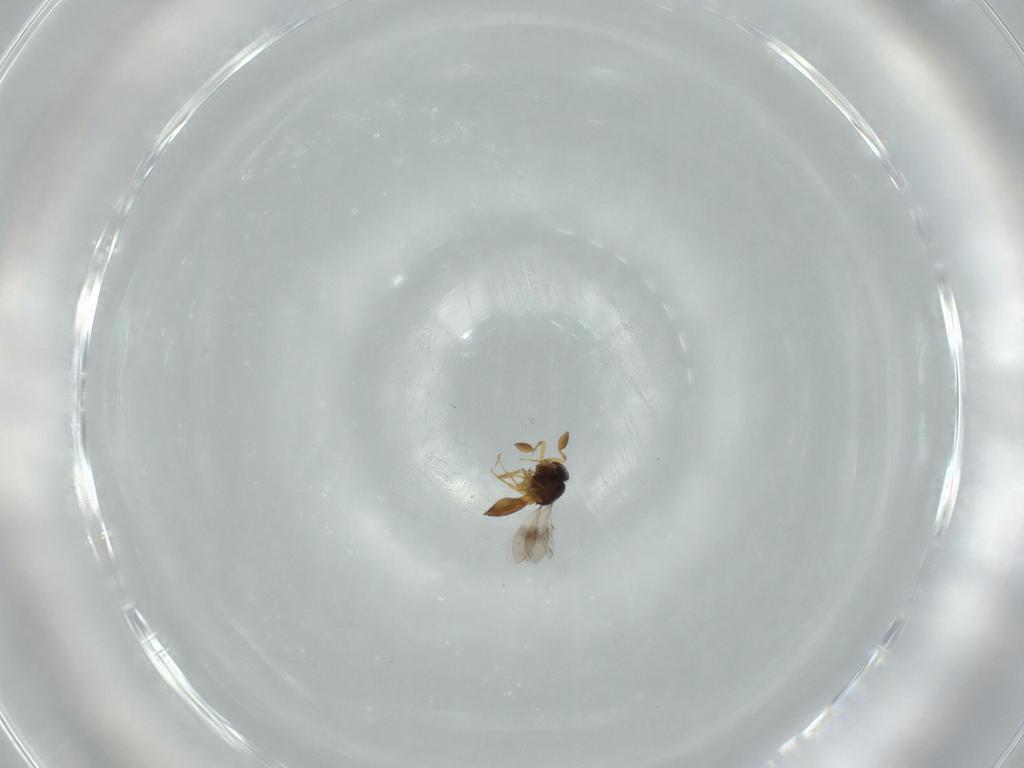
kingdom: Animalia
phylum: Arthropoda
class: Insecta
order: Hymenoptera
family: Scelionidae
